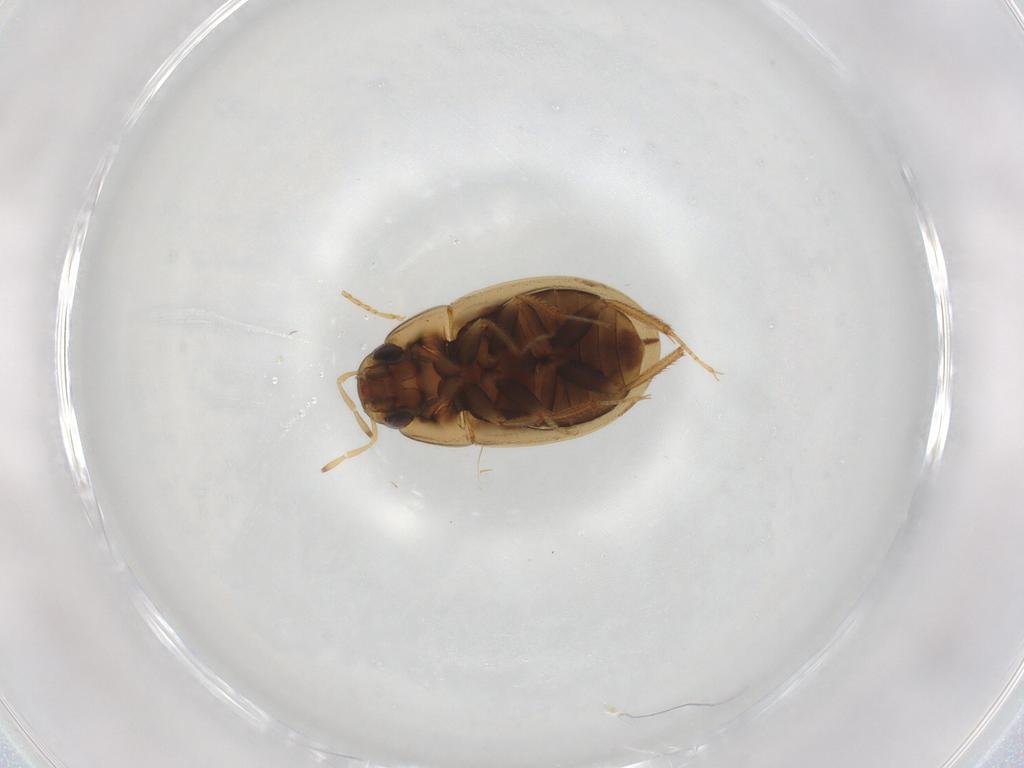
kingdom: Animalia
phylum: Arthropoda
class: Insecta
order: Coleoptera
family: Hydrophilidae
